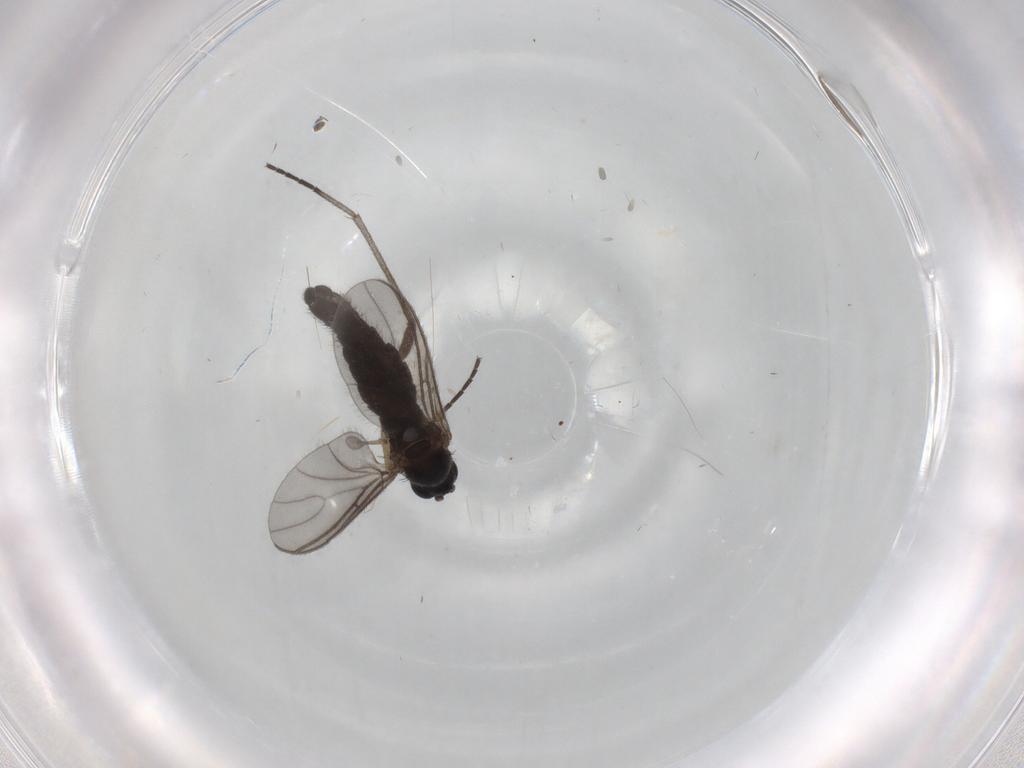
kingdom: Animalia
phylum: Arthropoda
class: Insecta
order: Diptera
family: Sciaridae
